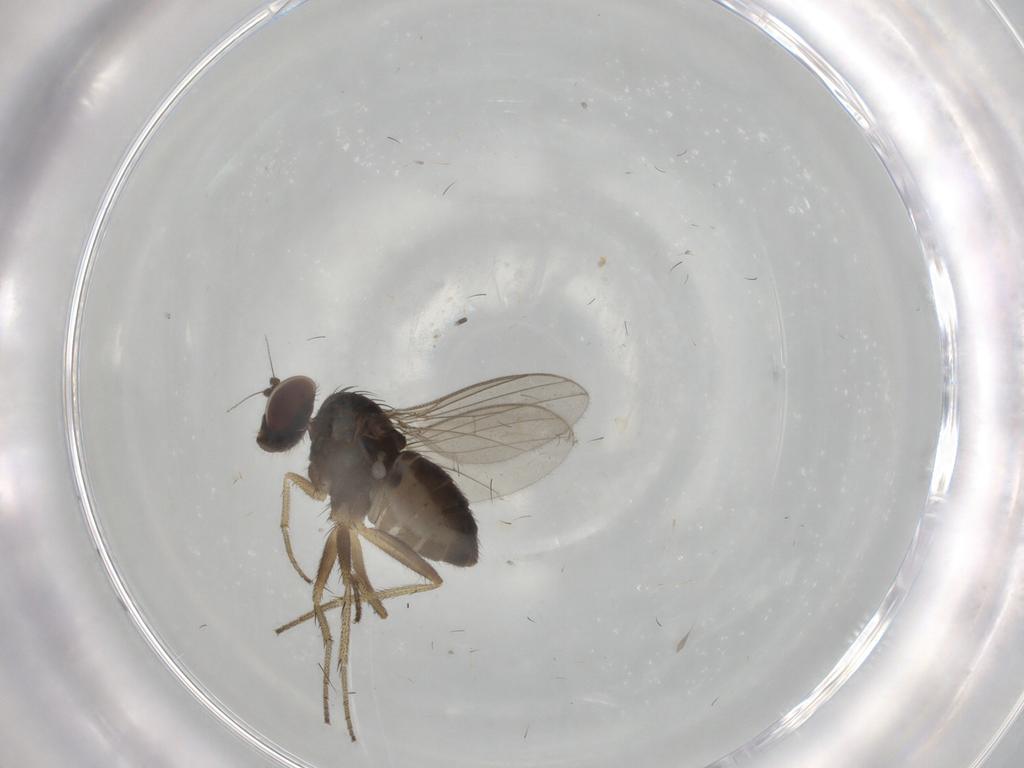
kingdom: Animalia
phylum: Arthropoda
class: Insecta
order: Diptera
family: Dolichopodidae
